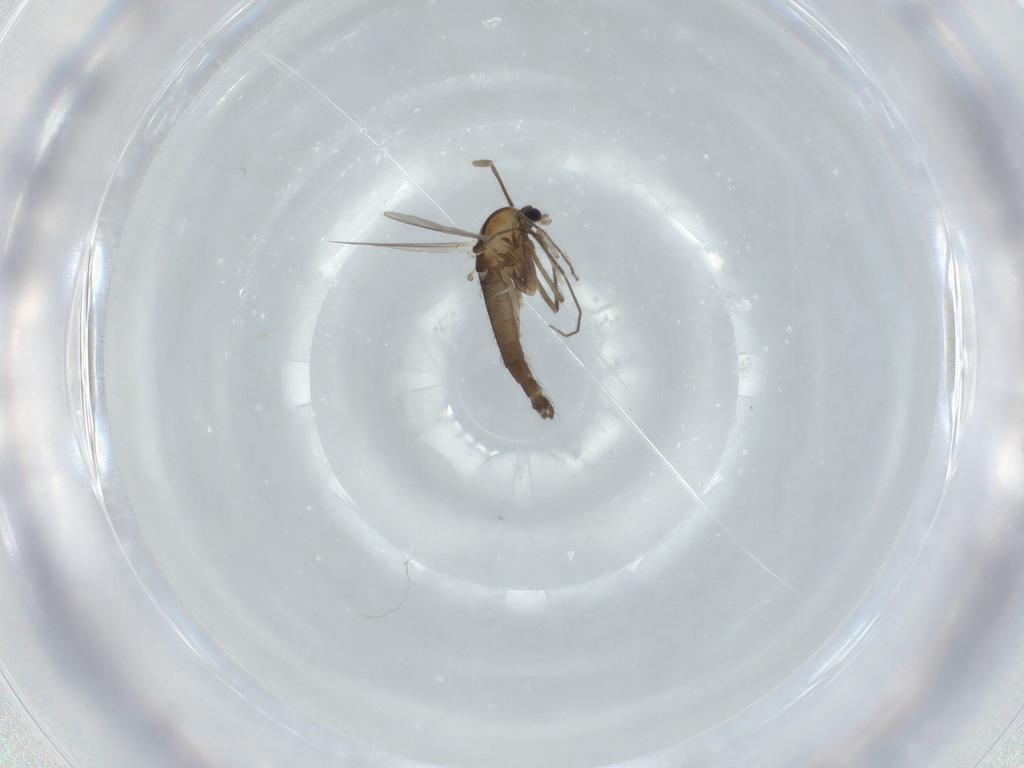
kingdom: Animalia
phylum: Arthropoda
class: Insecta
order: Diptera
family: Chironomidae
